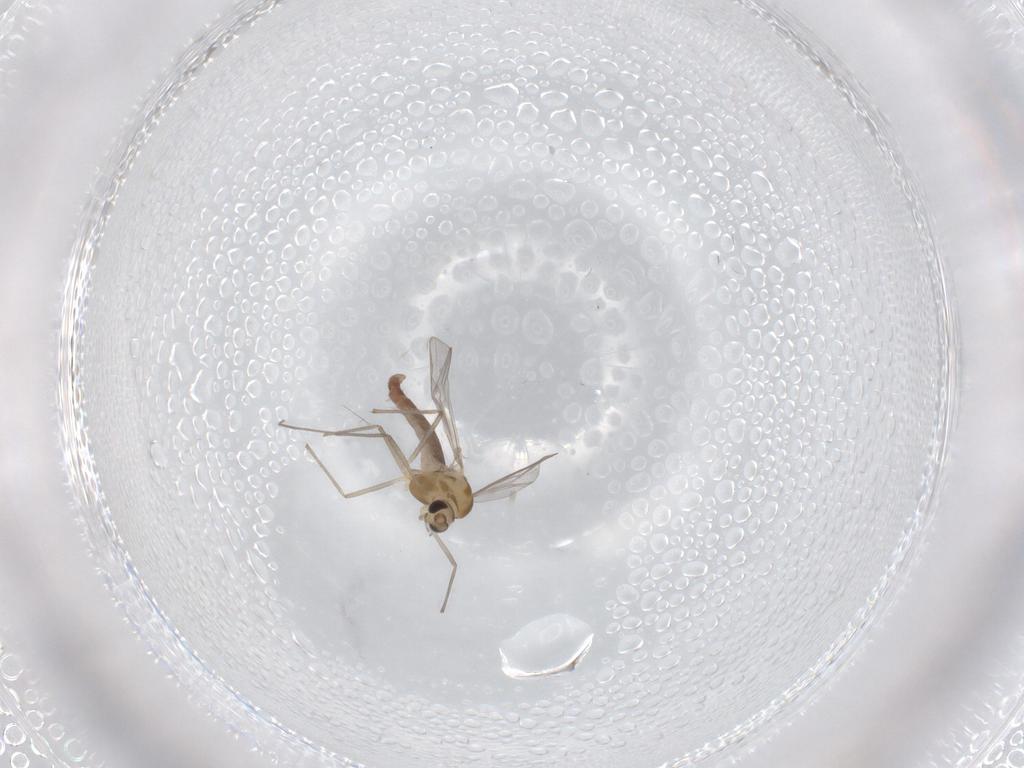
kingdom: Animalia
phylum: Arthropoda
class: Insecta
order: Diptera
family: Chironomidae
